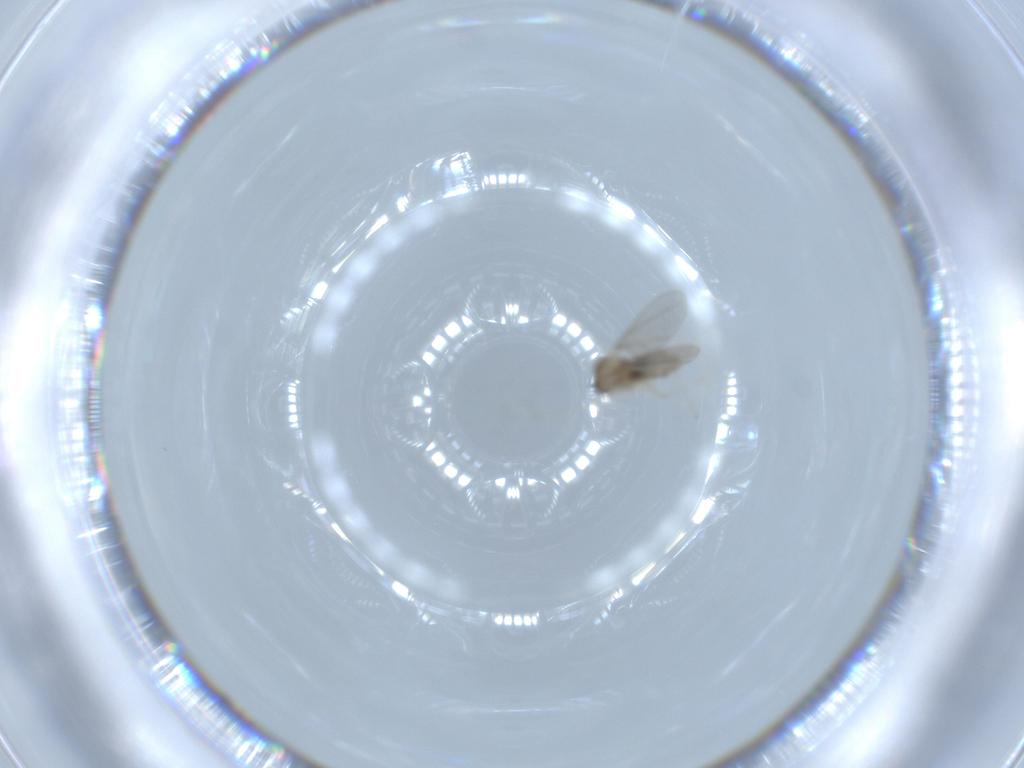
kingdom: Animalia
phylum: Arthropoda
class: Insecta
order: Diptera
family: Cecidomyiidae
